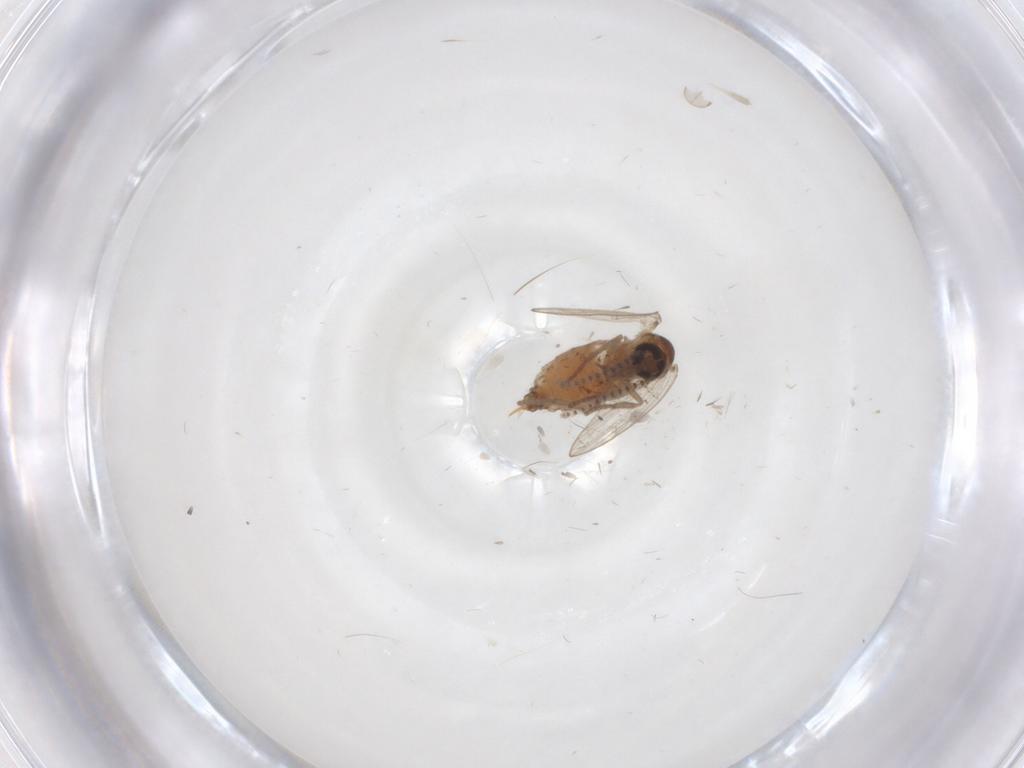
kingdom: Animalia
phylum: Arthropoda
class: Insecta
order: Diptera
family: Psychodidae
